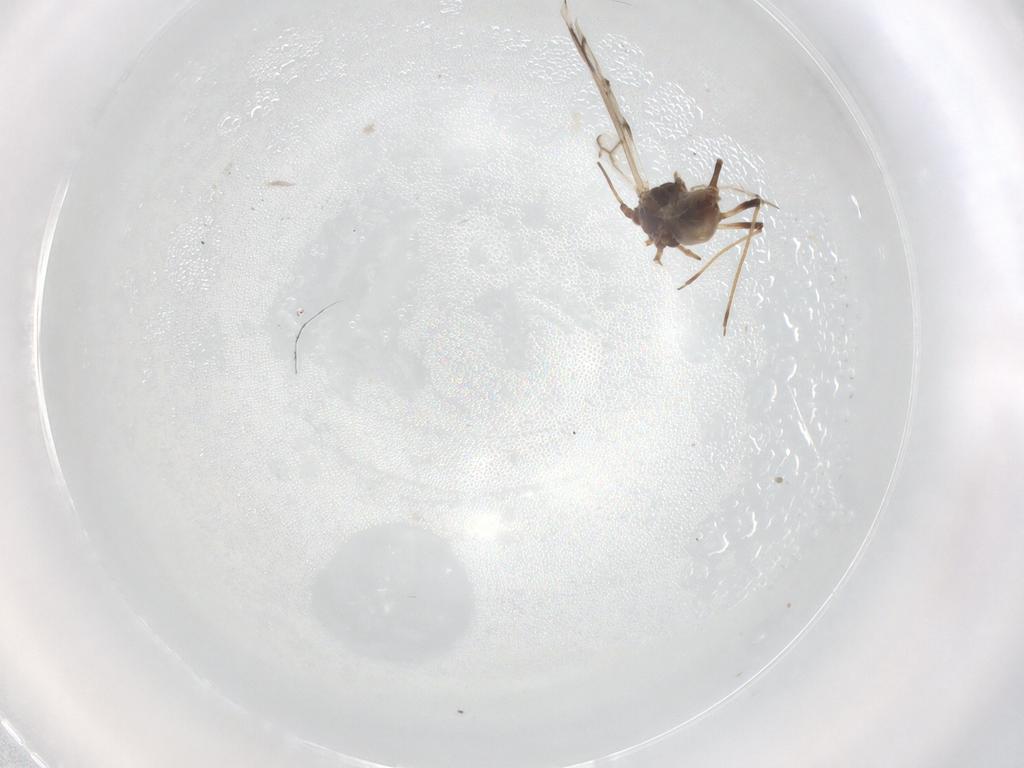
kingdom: Animalia
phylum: Arthropoda
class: Insecta
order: Hemiptera
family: Aphididae
